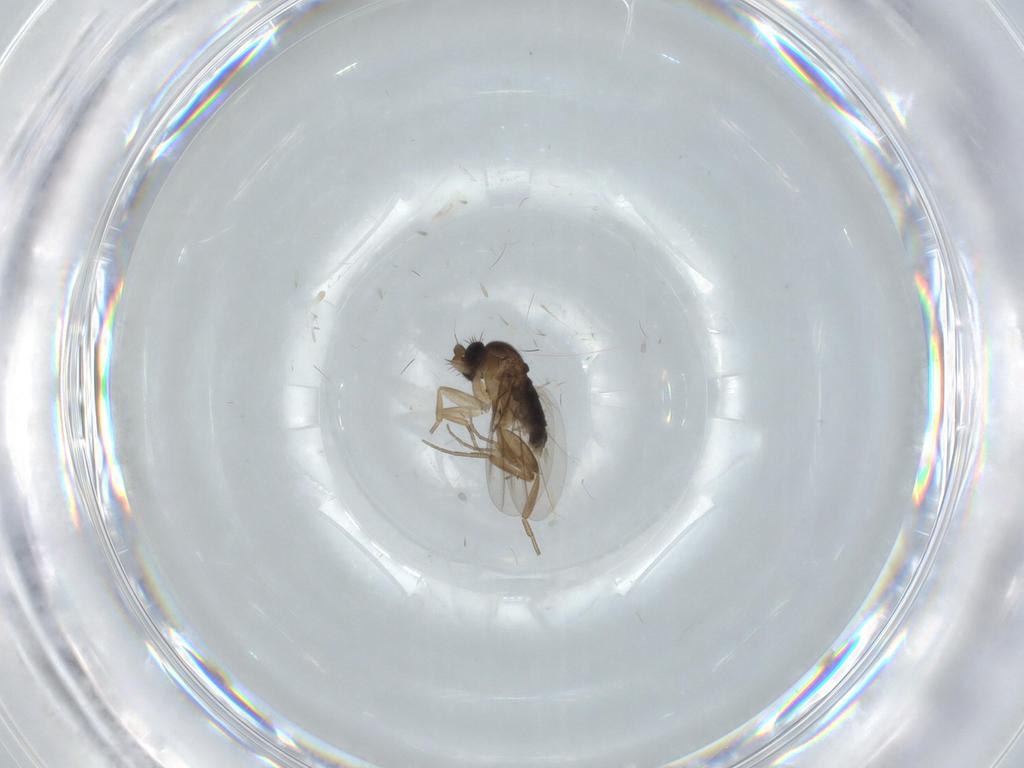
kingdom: Animalia
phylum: Arthropoda
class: Insecta
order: Diptera
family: Phoridae
